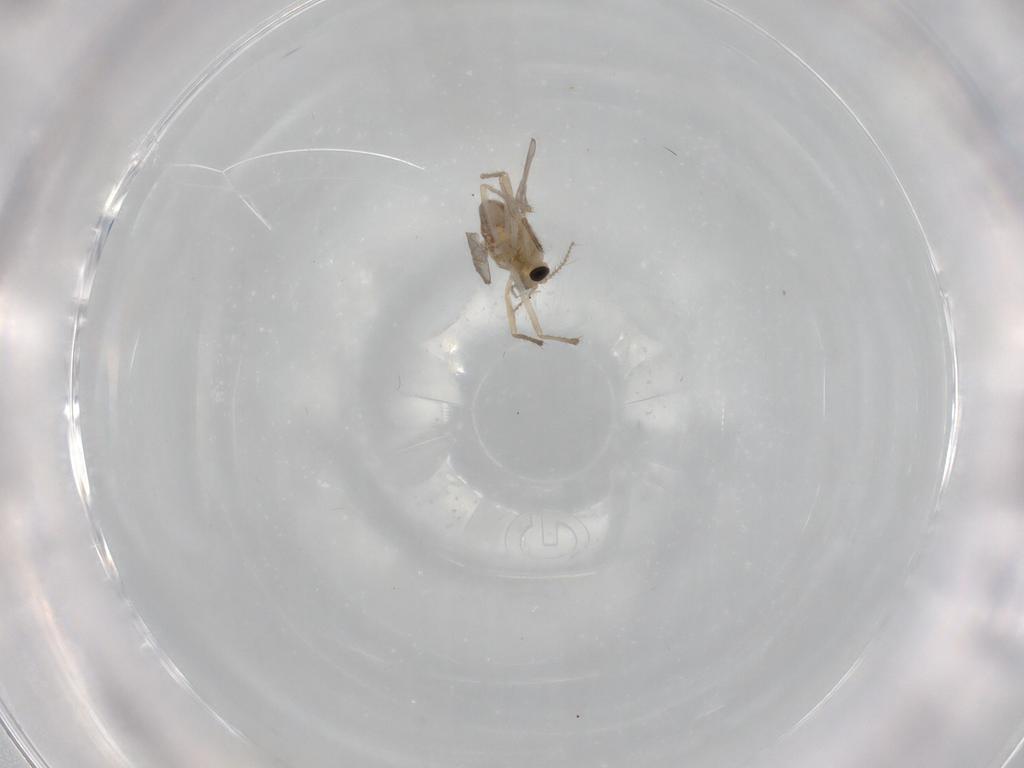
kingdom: Animalia
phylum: Arthropoda
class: Insecta
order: Diptera
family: Chironomidae
